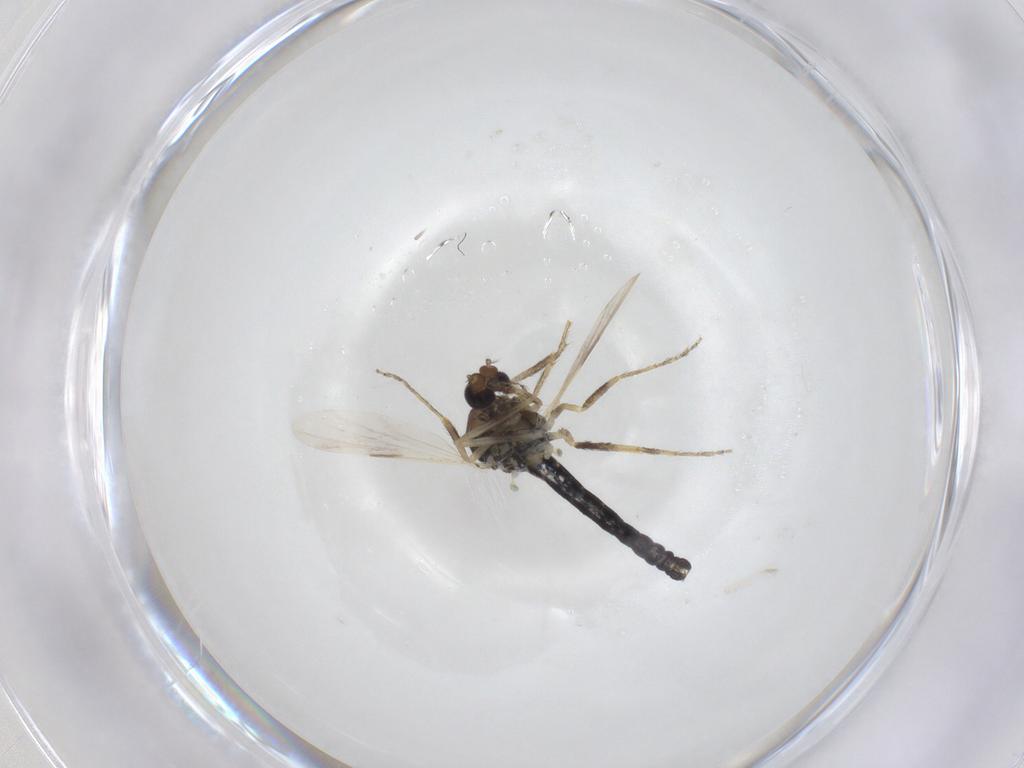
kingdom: Animalia
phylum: Arthropoda
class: Insecta
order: Diptera
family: Ceratopogonidae
